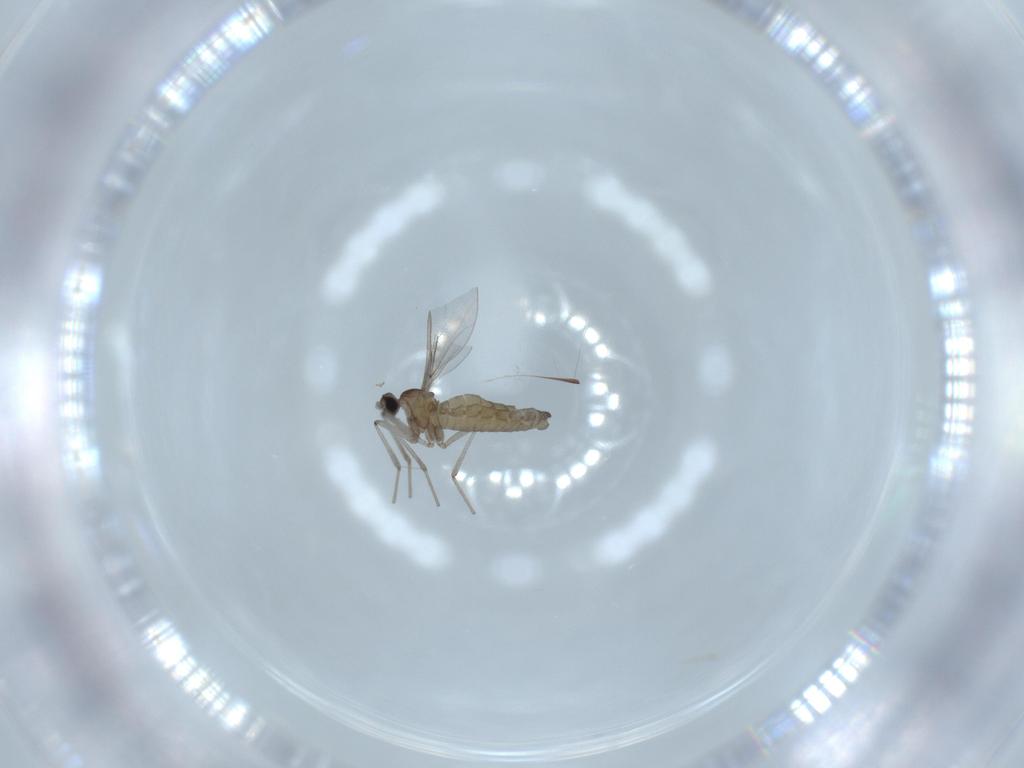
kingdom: Animalia
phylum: Arthropoda
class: Insecta
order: Diptera
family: Cecidomyiidae
